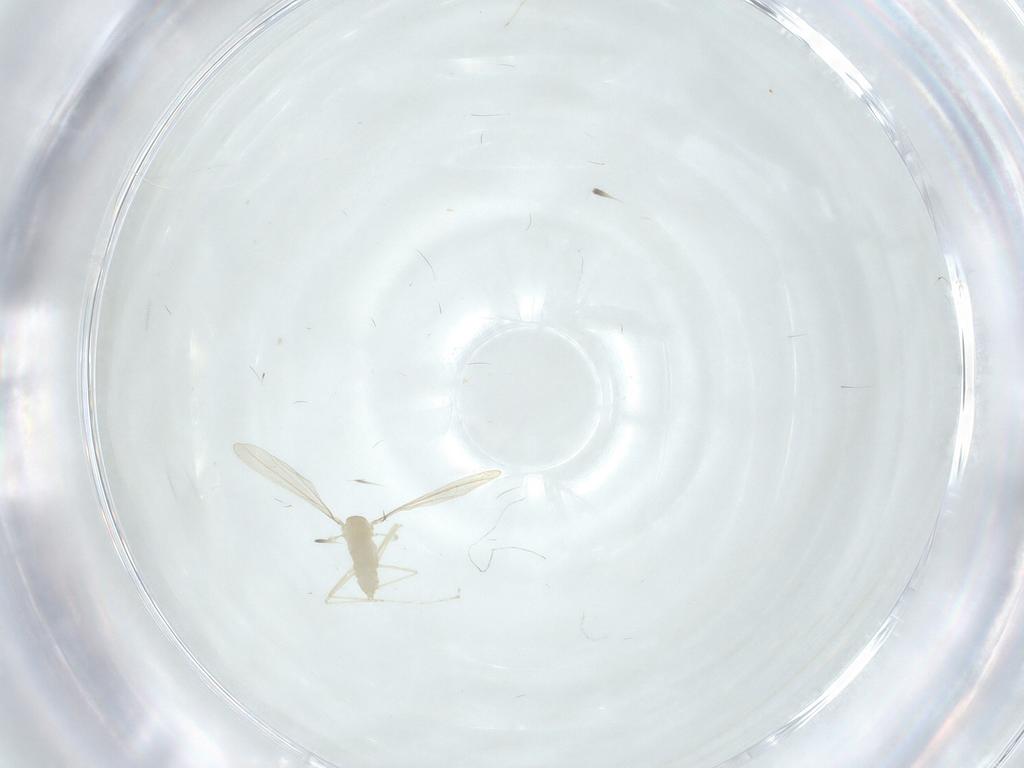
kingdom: Animalia
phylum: Arthropoda
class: Insecta
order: Diptera
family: Cecidomyiidae
